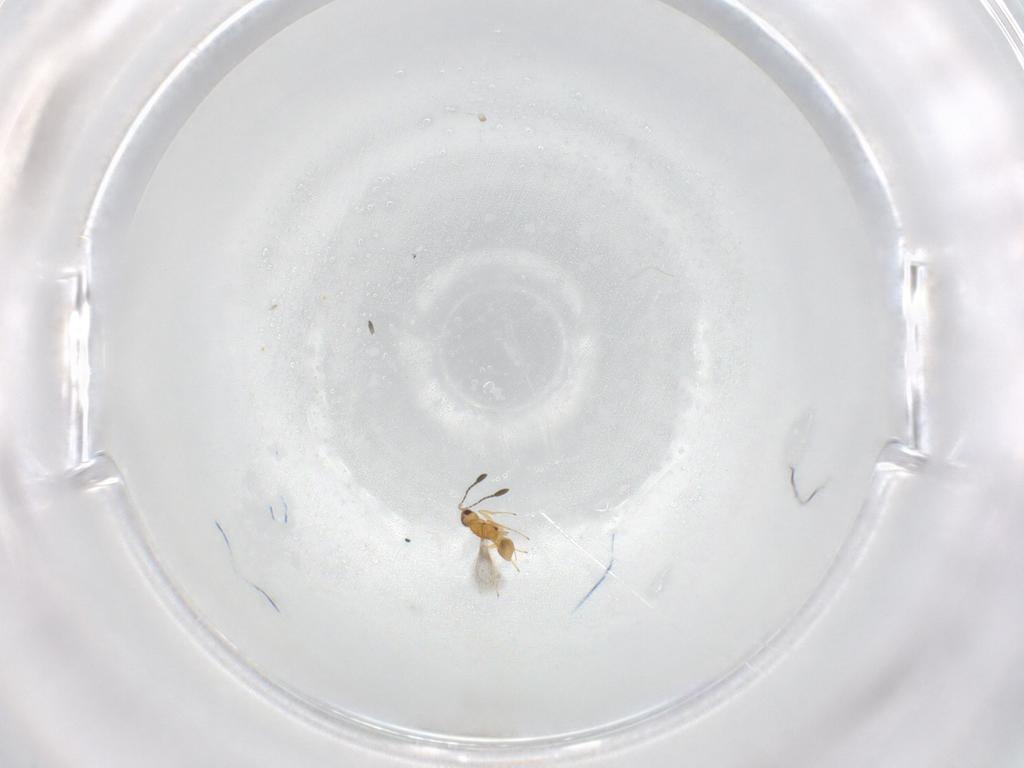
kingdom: Animalia
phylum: Arthropoda
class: Insecta
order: Hymenoptera
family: Mymaridae
